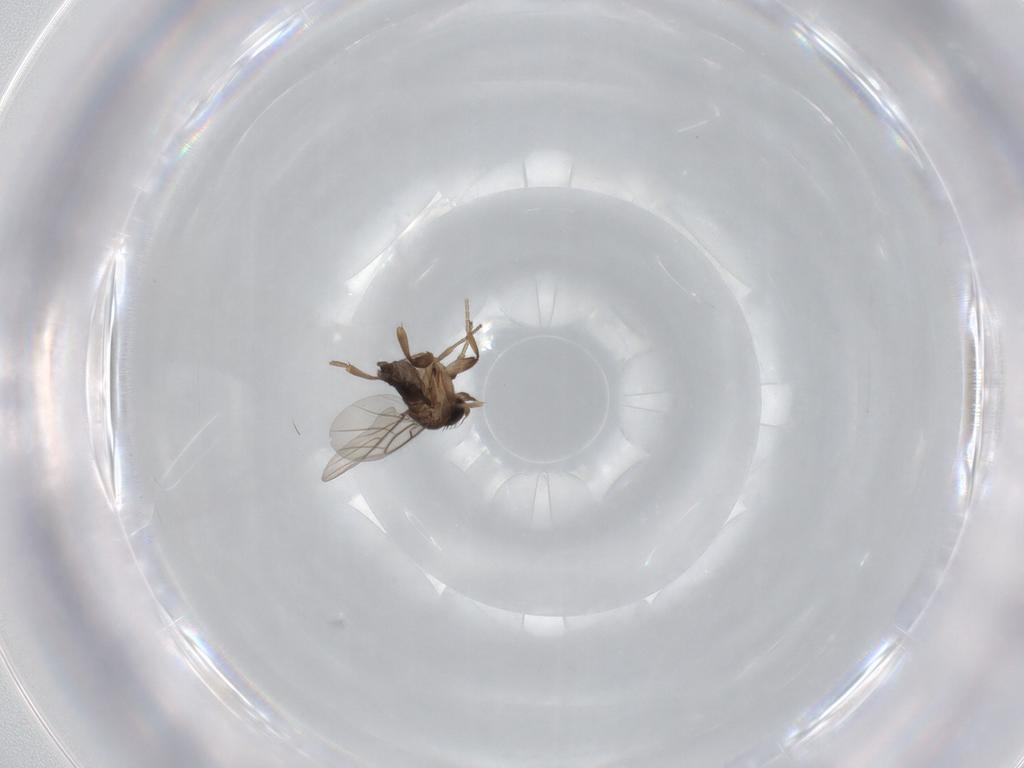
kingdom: Animalia
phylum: Arthropoda
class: Insecta
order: Diptera
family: Phoridae
